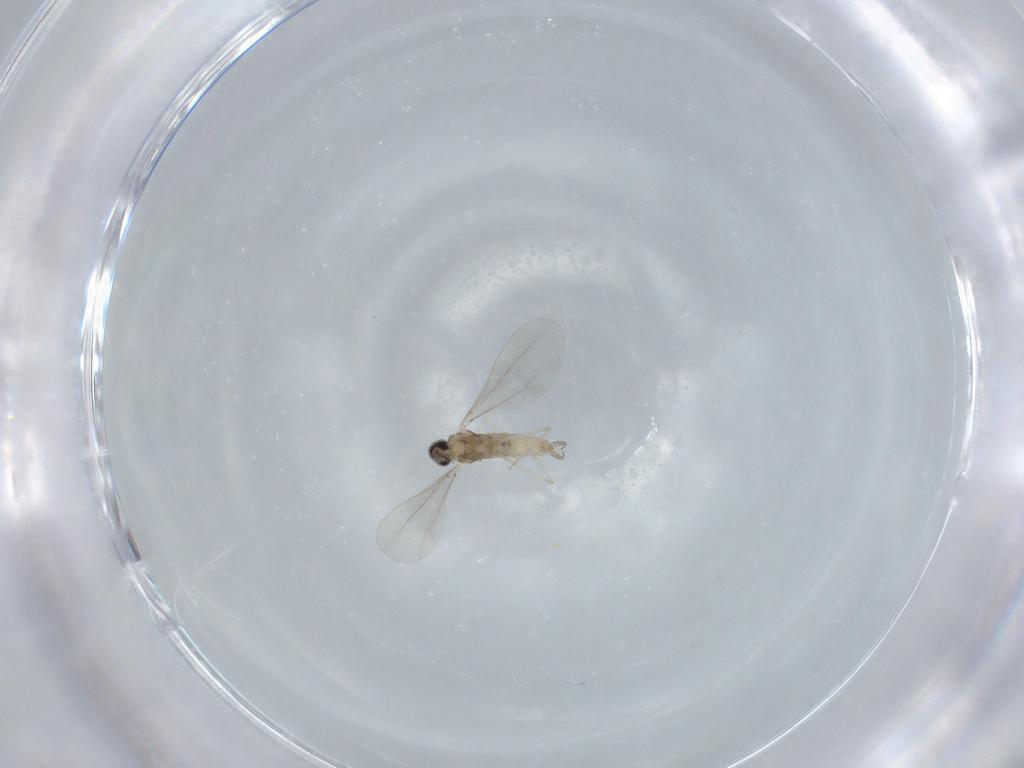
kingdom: Animalia
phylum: Arthropoda
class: Insecta
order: Diptera
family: Cecidomyiidae
